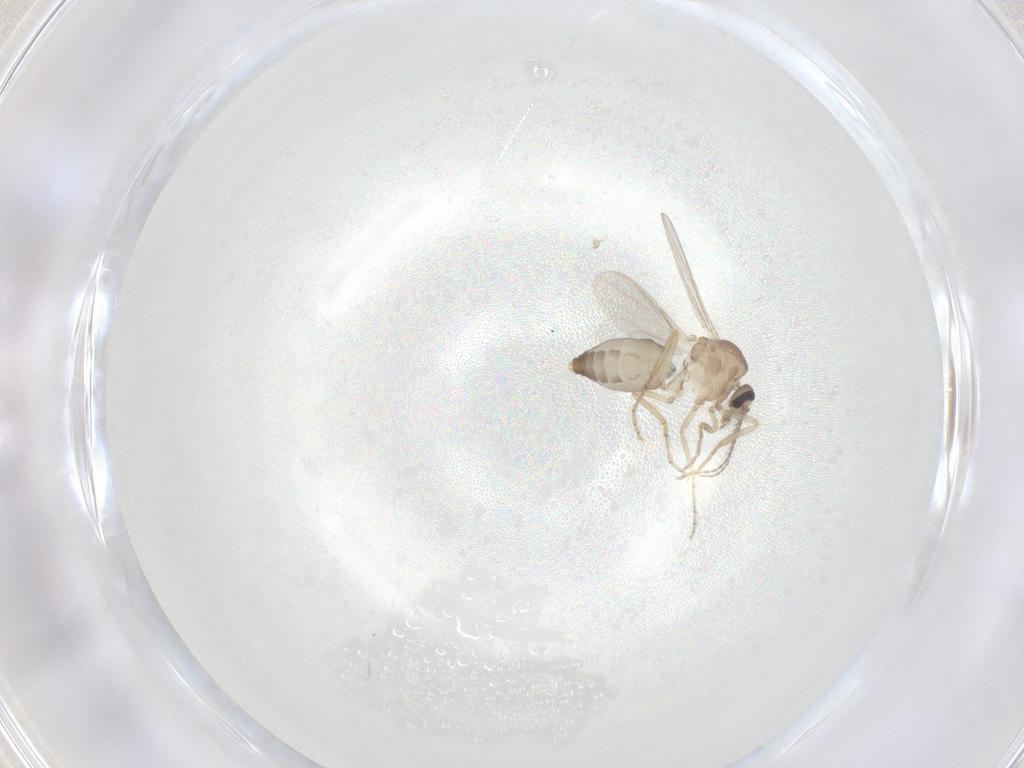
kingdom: Animalia
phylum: Arthropoda
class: Insecta
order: Diptera
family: Ceratopogonidae
